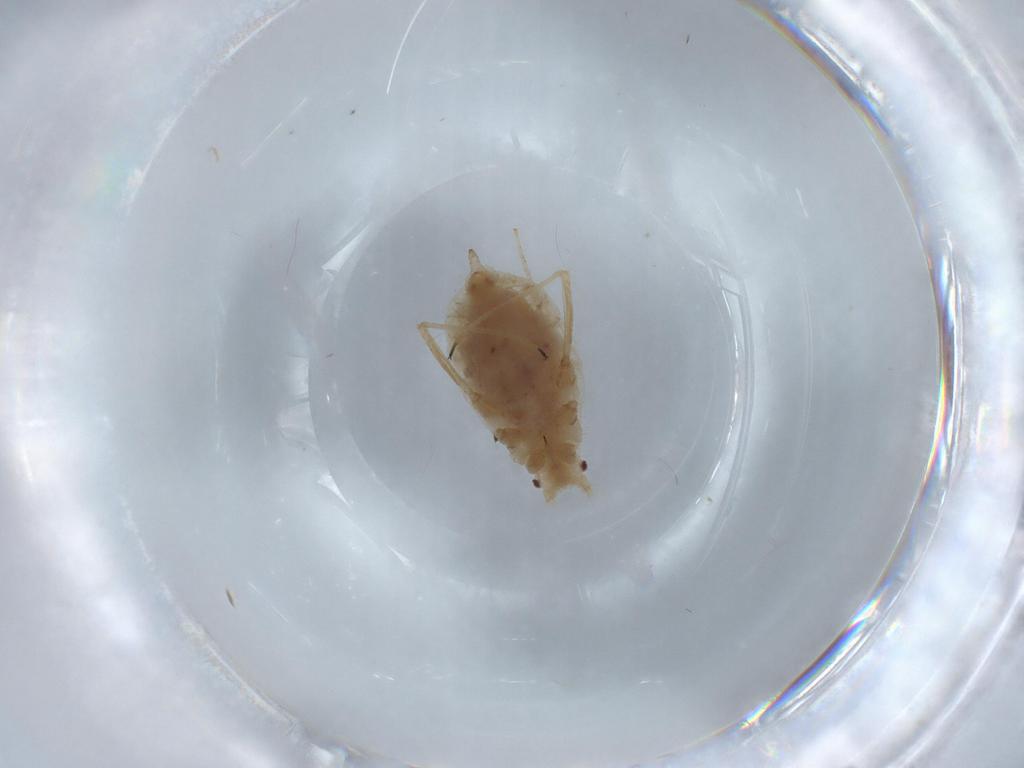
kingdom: Animalia
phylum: Arthropoda
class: Insecta
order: Hemiptera
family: Aphididae
